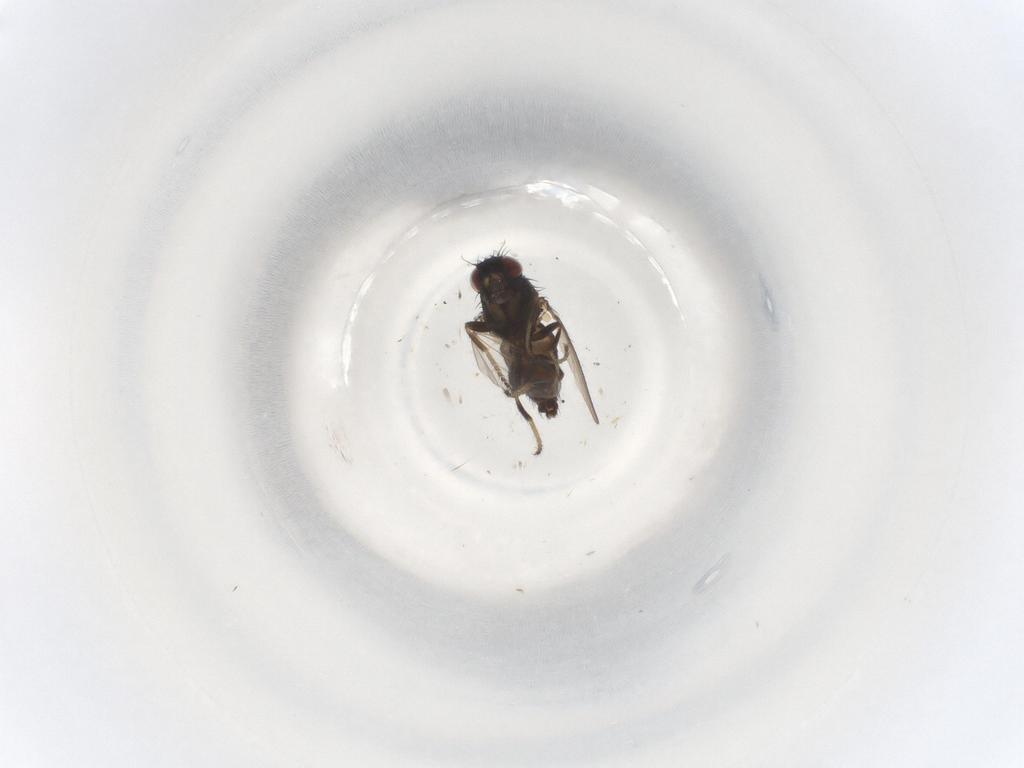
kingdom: Animalia
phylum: Arthropoda
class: Insecta
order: Diptera
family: Milichiidae
